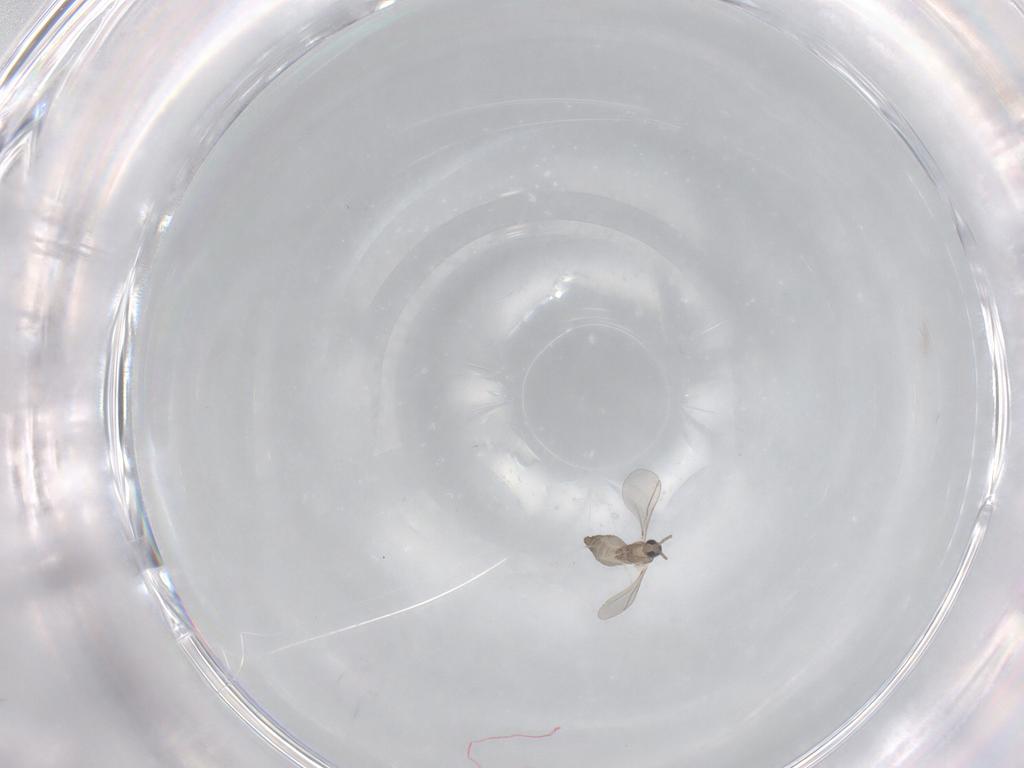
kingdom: Animalia
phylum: Arthropoda
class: Insecta
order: Diptera
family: Cecidomyiidae
